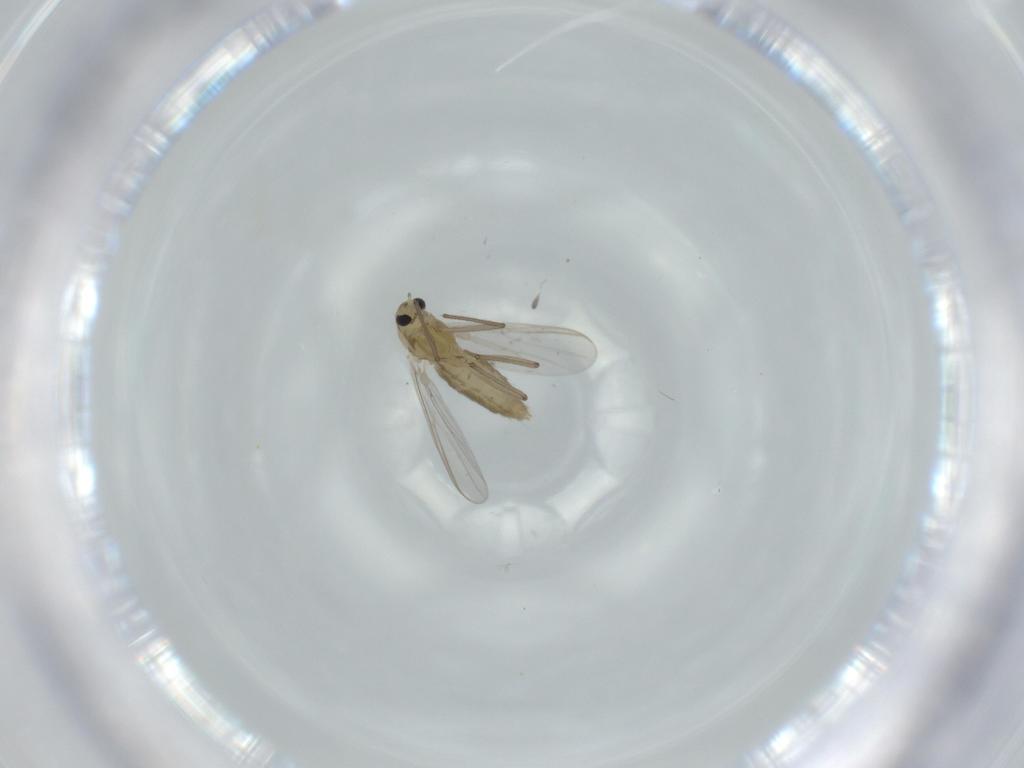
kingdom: Animalia
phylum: Arthropoda
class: Insecta
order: Diptera
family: Chironomidae
